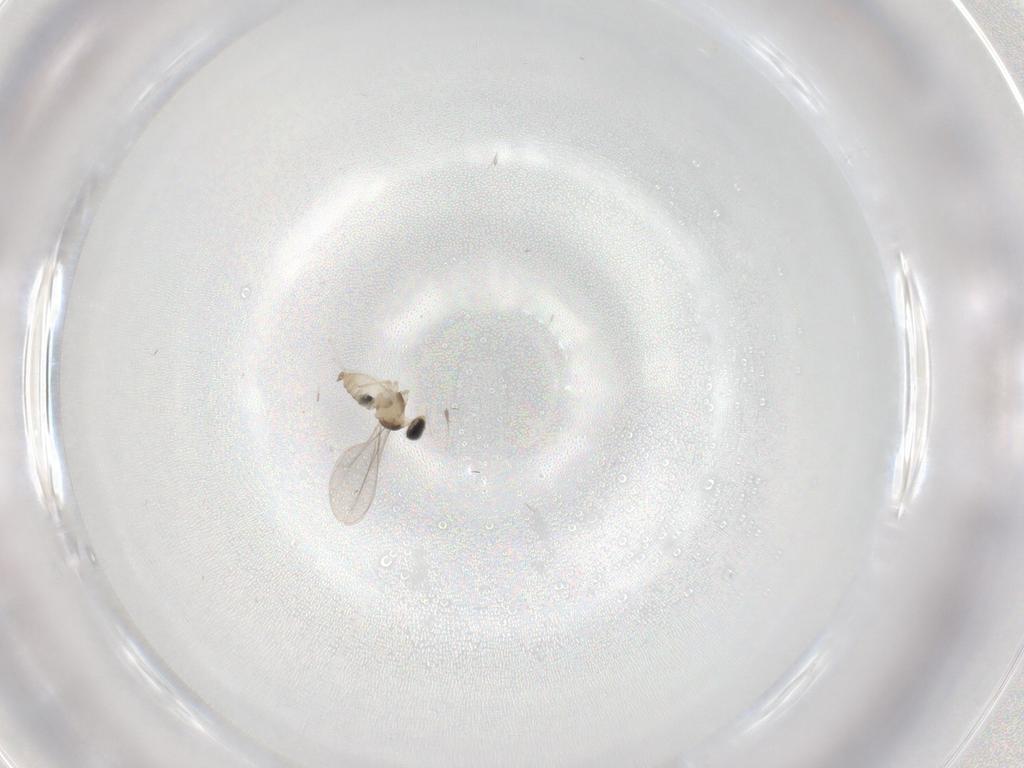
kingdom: Animalia
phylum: Arthropoda
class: Insecta
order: Diptera
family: Cecidomyiidae
